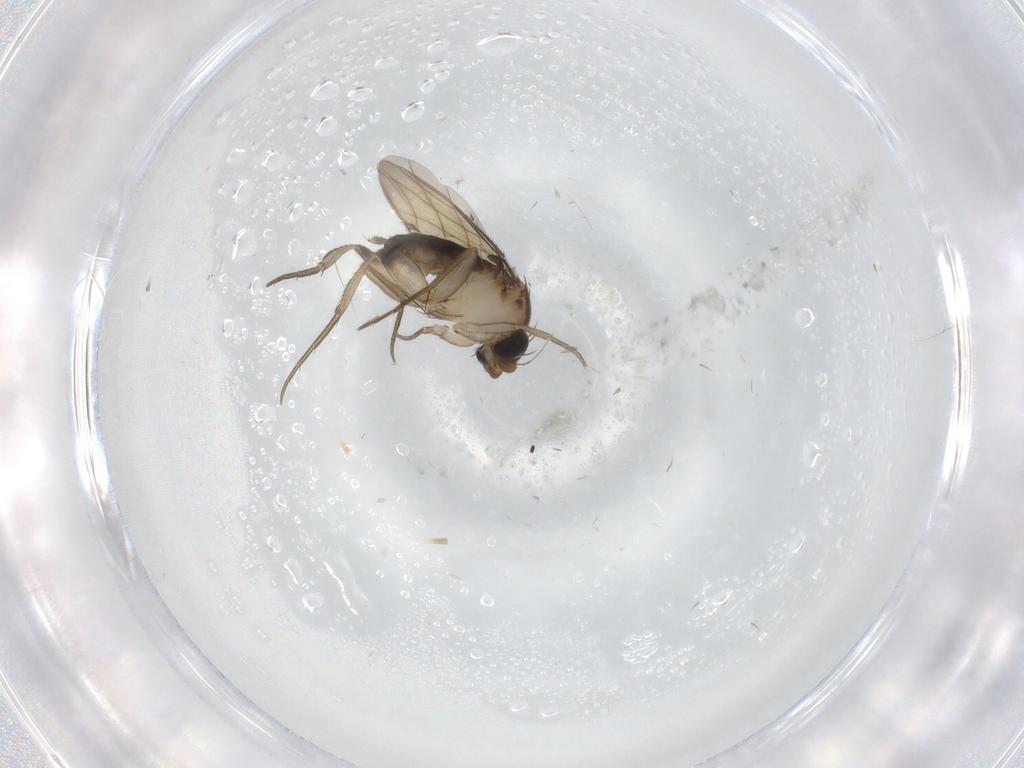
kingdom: Animalia
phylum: Arthropoda
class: Insecta
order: Diptera
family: Phoridae
